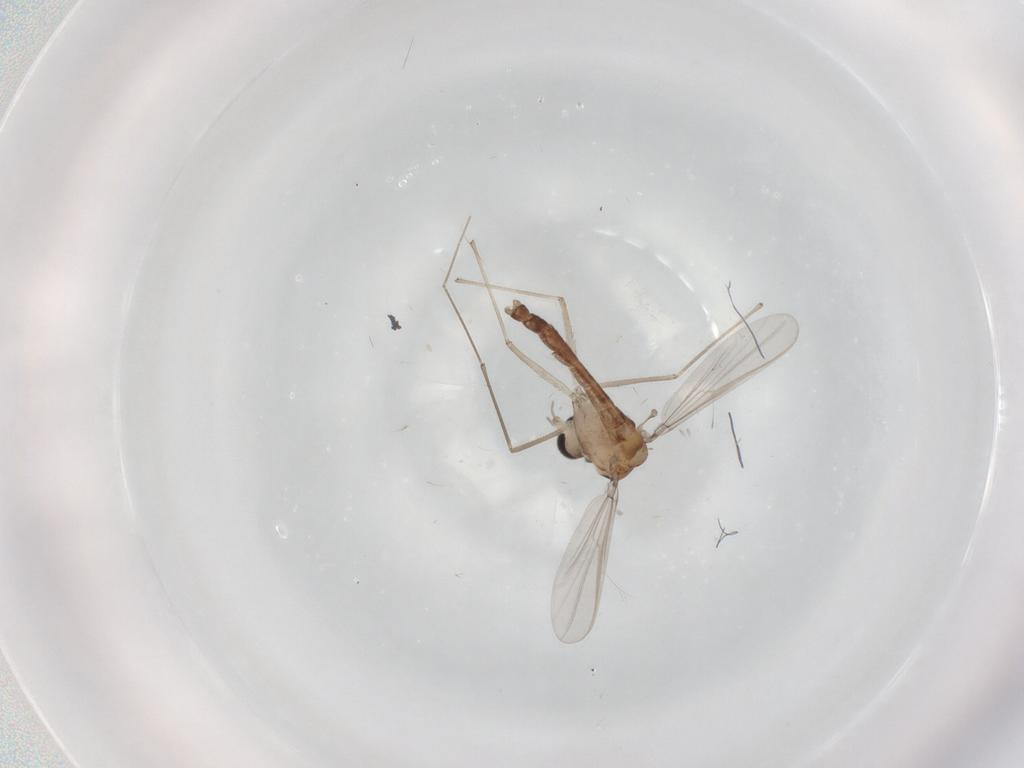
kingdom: Animalia
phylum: Arthropoda
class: Insecta
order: Diptera
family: Chironomidae
